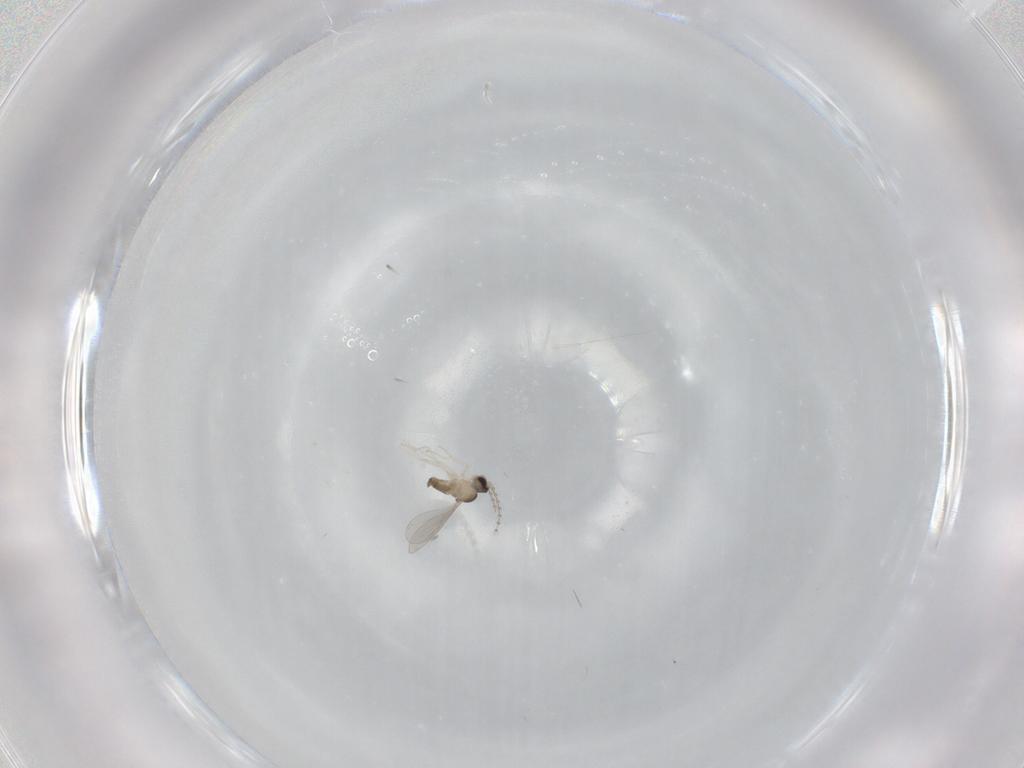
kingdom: Animalia
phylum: Arthropoda
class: Insecta
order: Diptera
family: Cecidomyiidae
